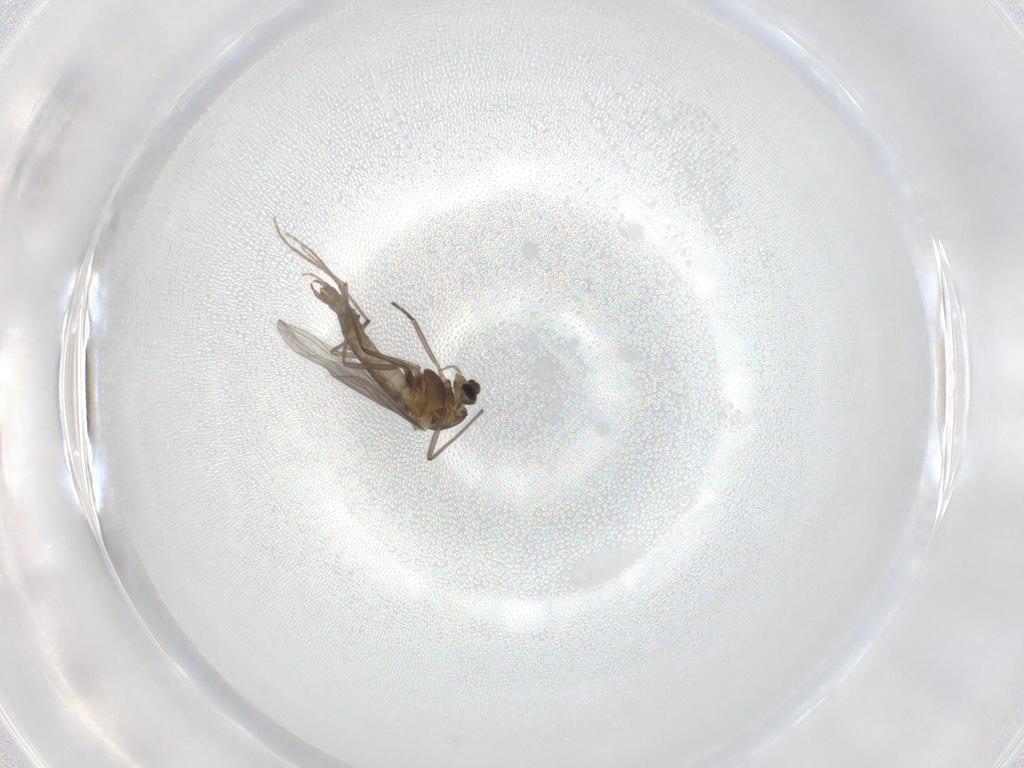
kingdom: Animalia
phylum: Arthropoda
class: Insecta
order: Diptera
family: Chironomidae
